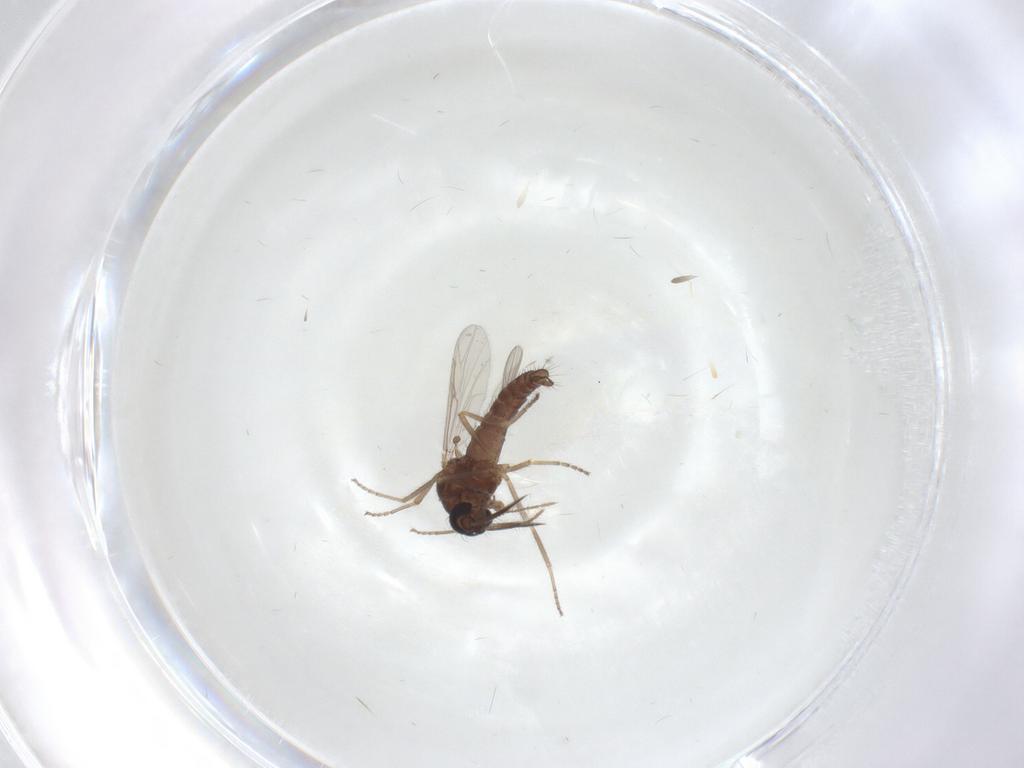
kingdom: Animalia
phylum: Arthropoda
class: Insecta
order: Diptera
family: Ceratopogonidae
